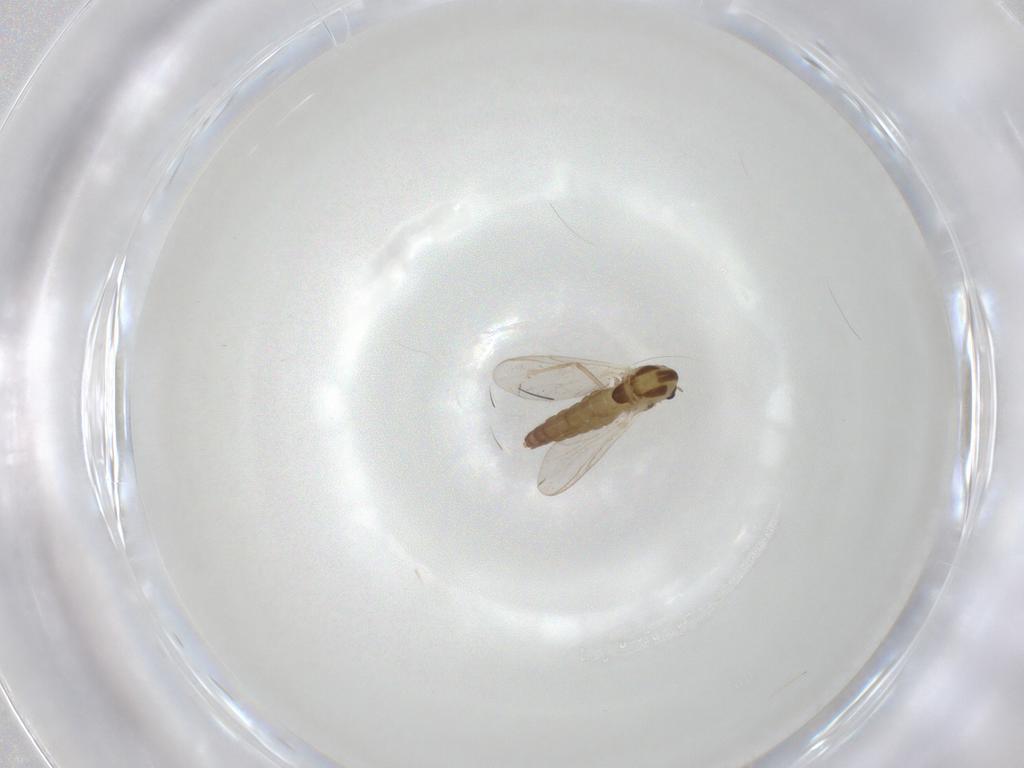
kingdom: Animalia
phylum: Arthropoda
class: Insecta
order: Diptera
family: Chironomidae
